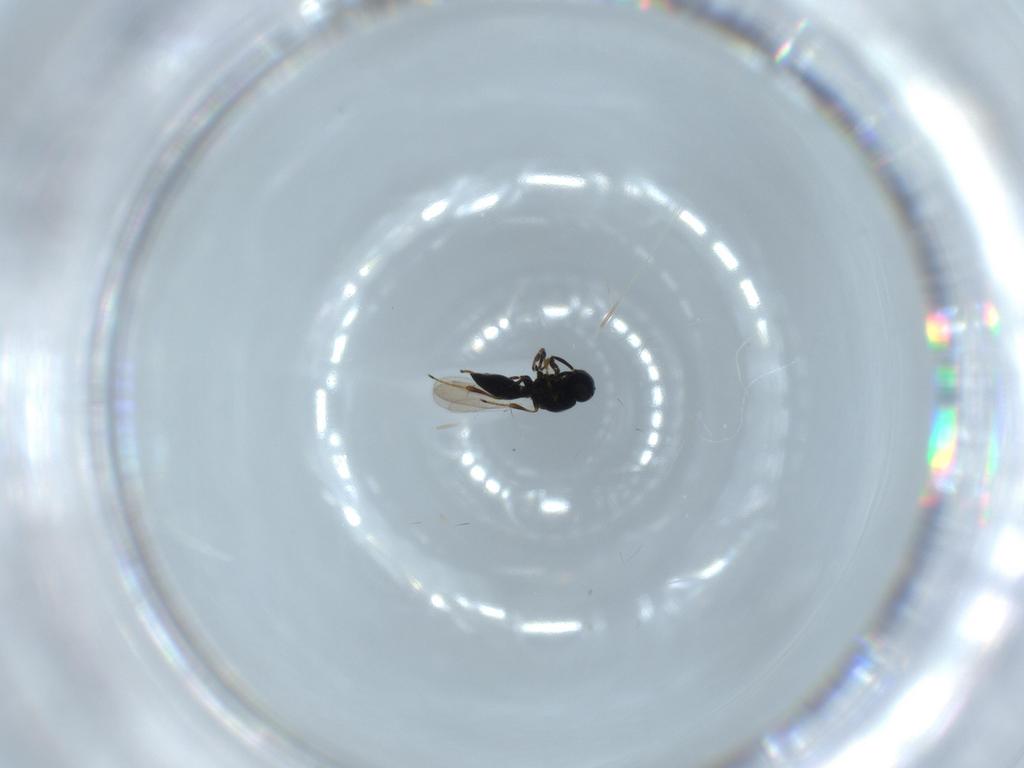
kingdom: Animalia
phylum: Arthropoda
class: Insecta
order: Hymenoptera
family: Platygastridae
